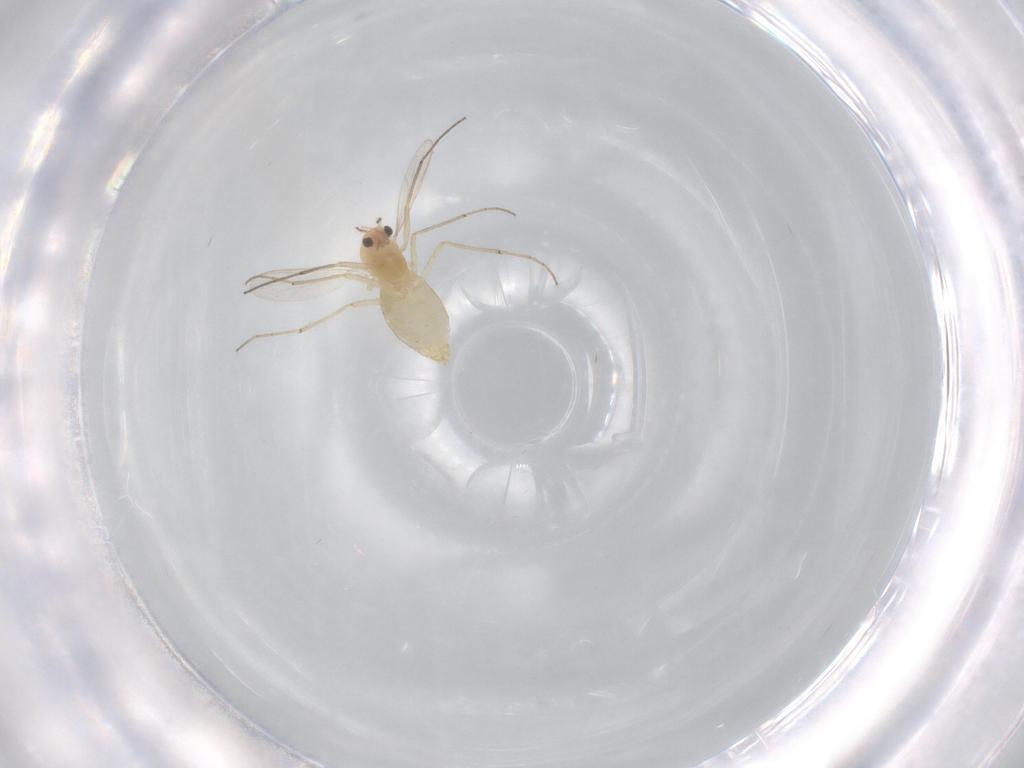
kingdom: Animalia
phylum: Arthropoda
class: Insecta
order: Diptera
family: Chironomidae
